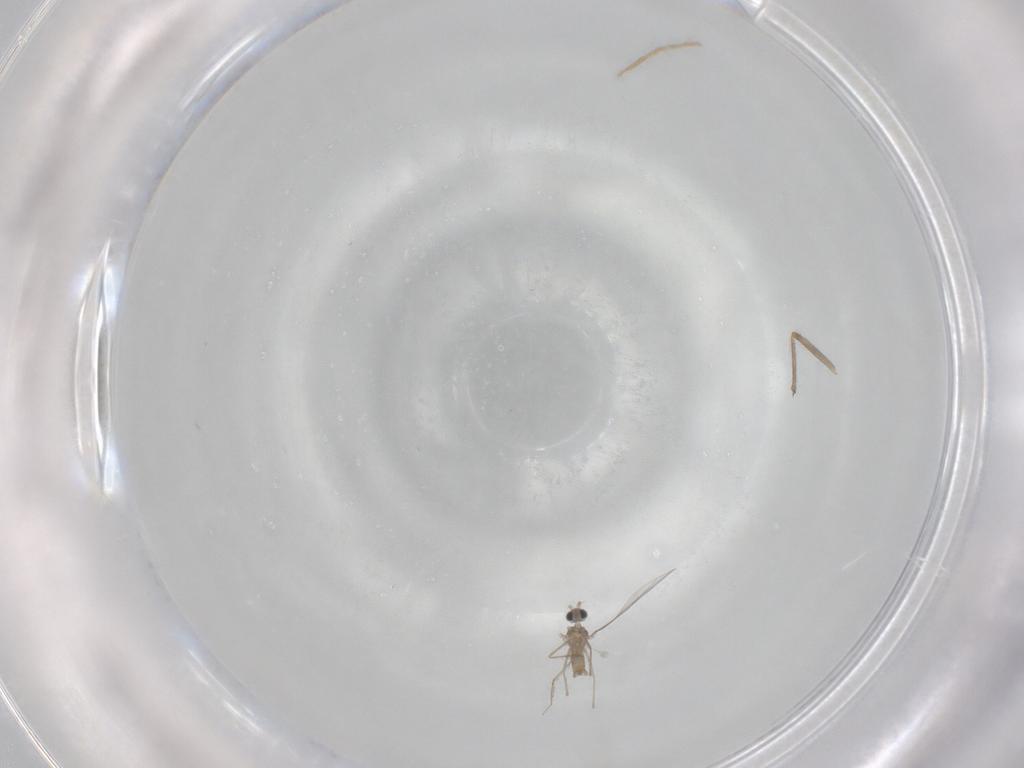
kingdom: Animalia
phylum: Arthropoda
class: Insecta
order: Diptera
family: Cecidomyiidae
